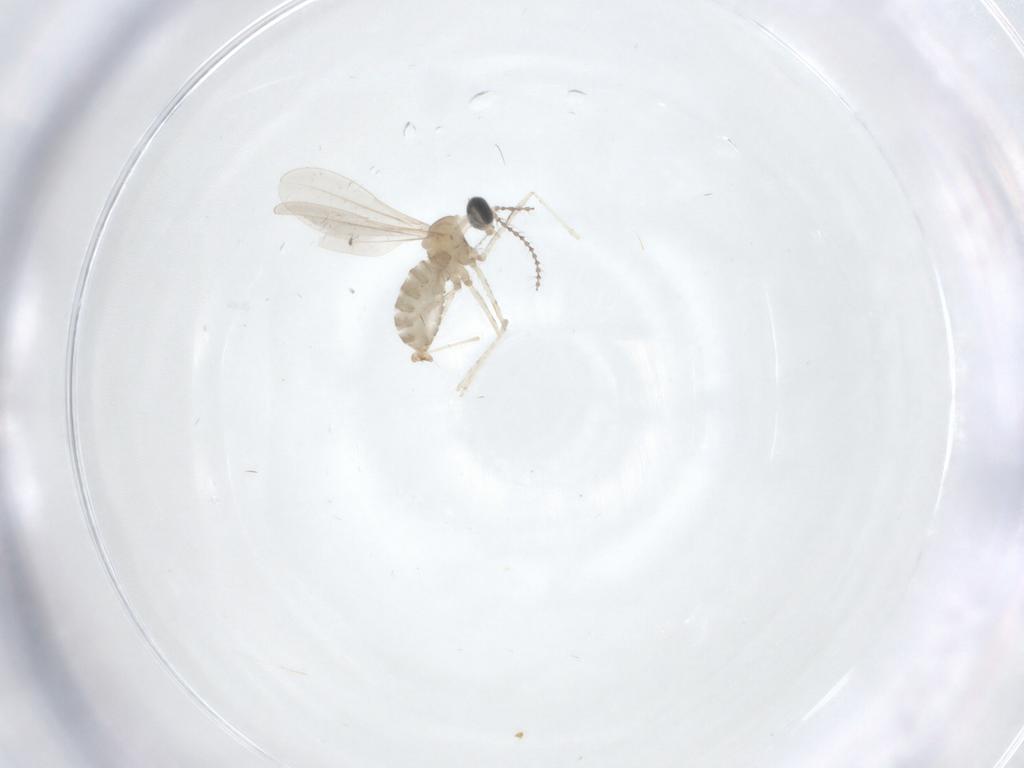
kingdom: Animalia
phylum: Arthropoda
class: Insecta
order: Diptera
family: Cecidomyiidae
